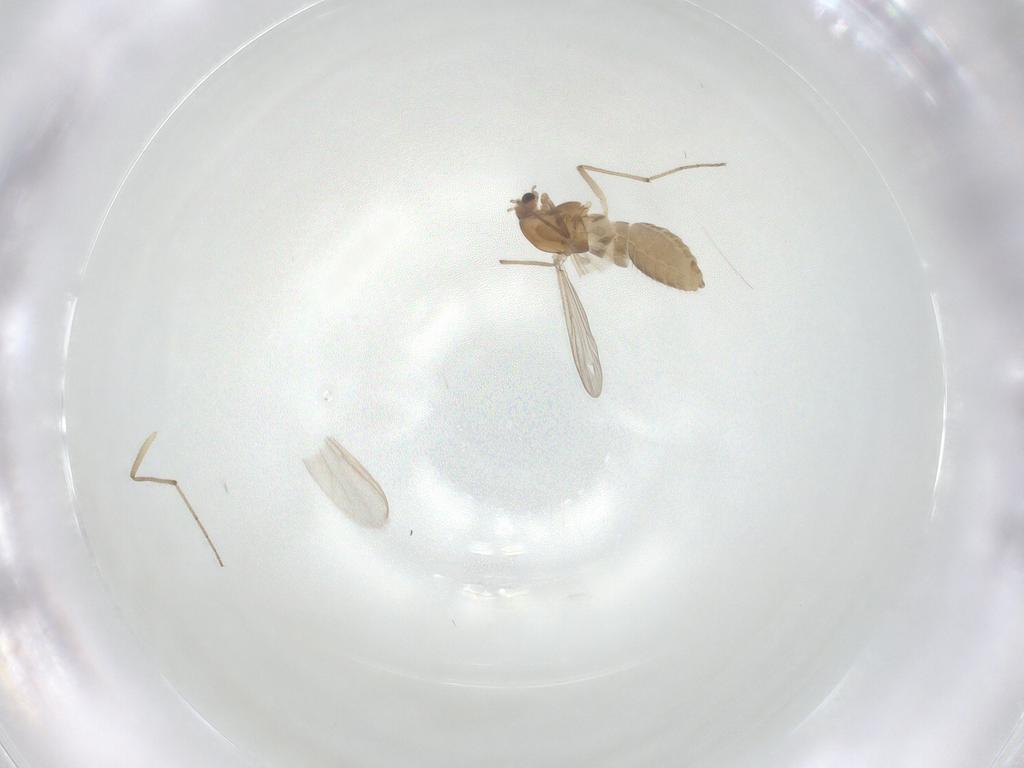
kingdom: Animalia
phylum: Arthropoda
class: Insecta
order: Diptera
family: Chironomidae
